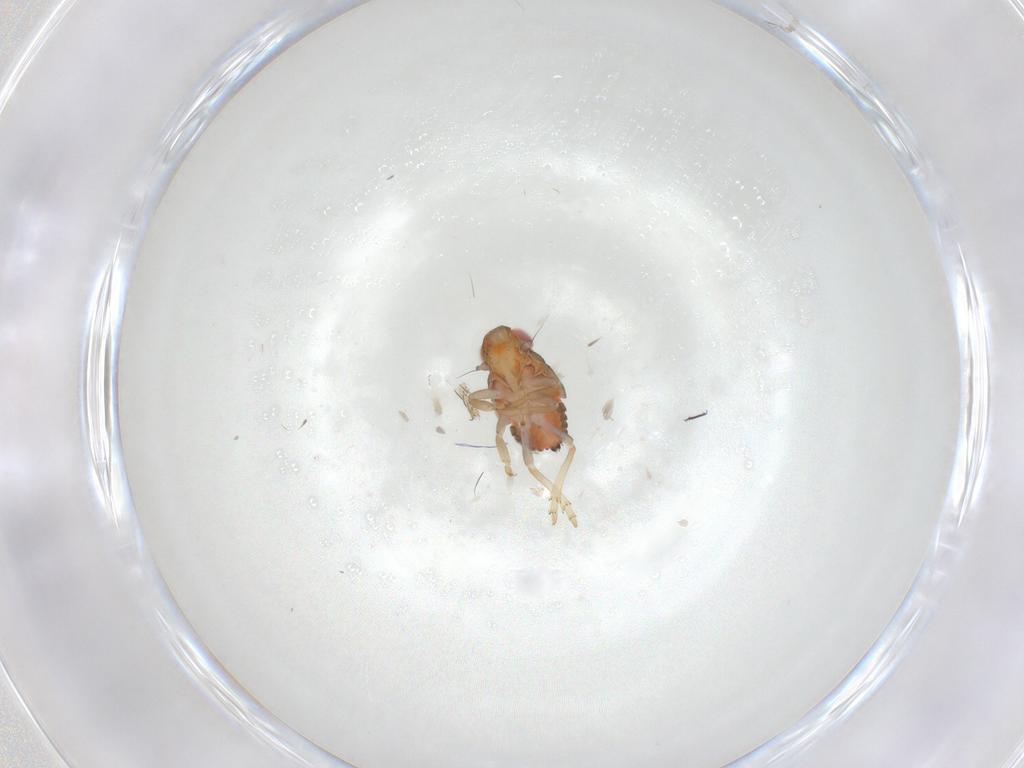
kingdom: Animalia
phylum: Arthropoda
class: Insecta
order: Hemiptera
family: Issidae
